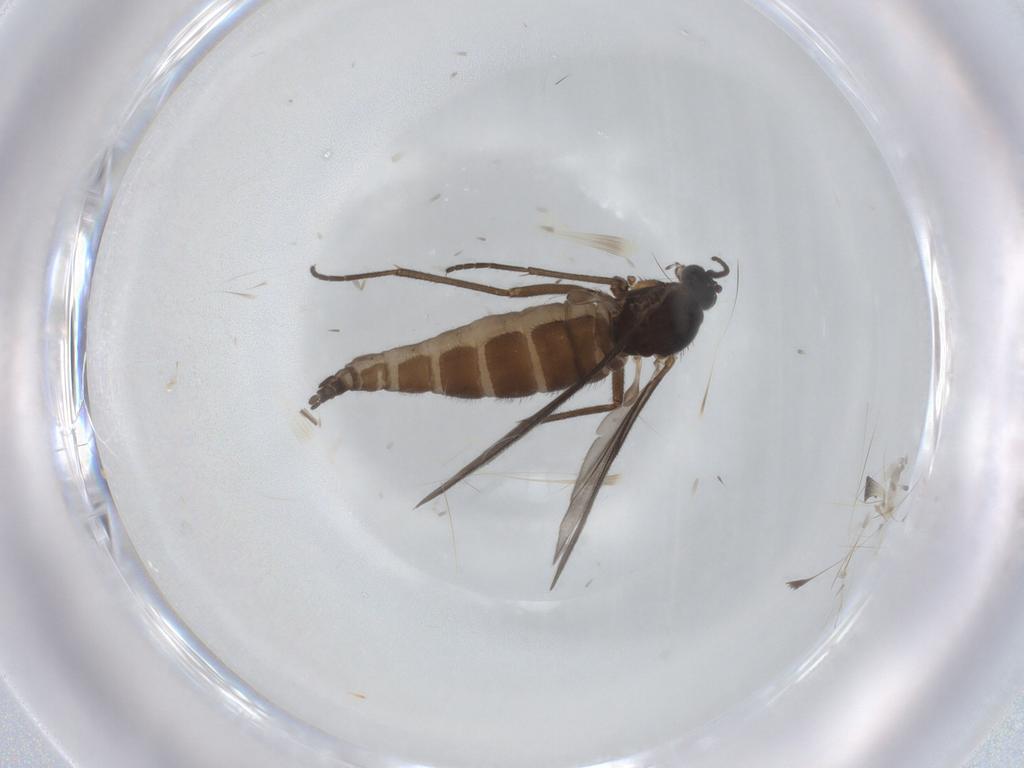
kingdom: Animalia
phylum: Arthropoda
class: Insecta
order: Diptera
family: Sciaridae
